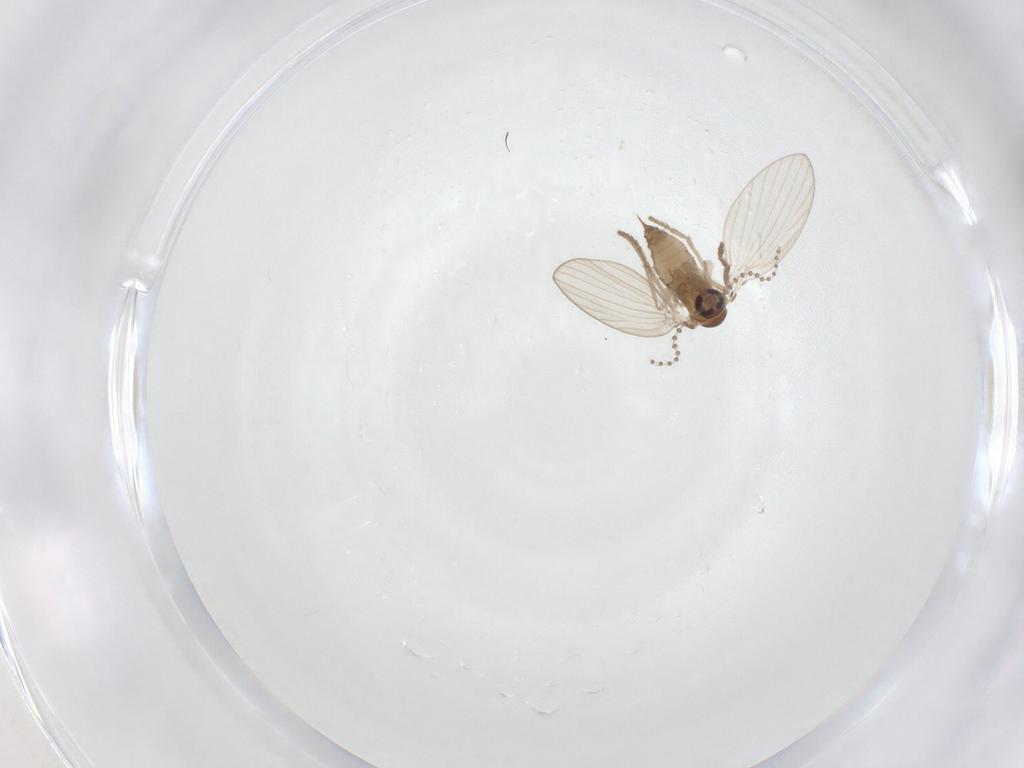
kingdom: Animalia
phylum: Arthropoda
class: Insecta
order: Diptera
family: Psychodidae
